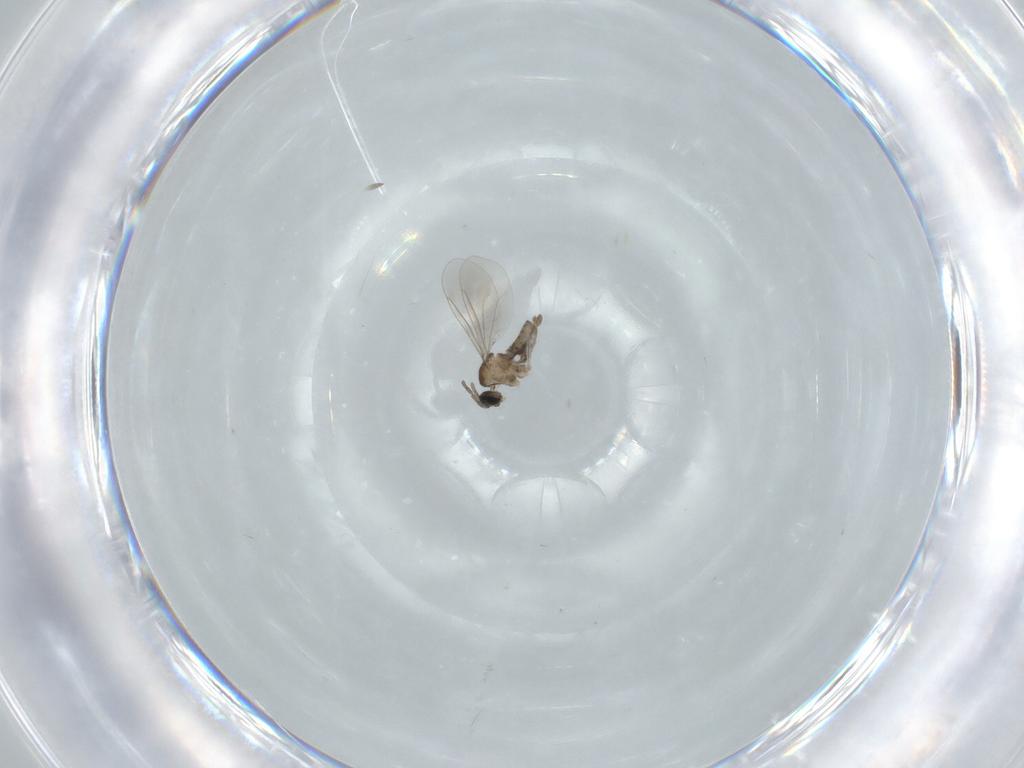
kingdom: Animalia
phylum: Arthropoda
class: Insecta
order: Diptera
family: Cecidomyiidae
